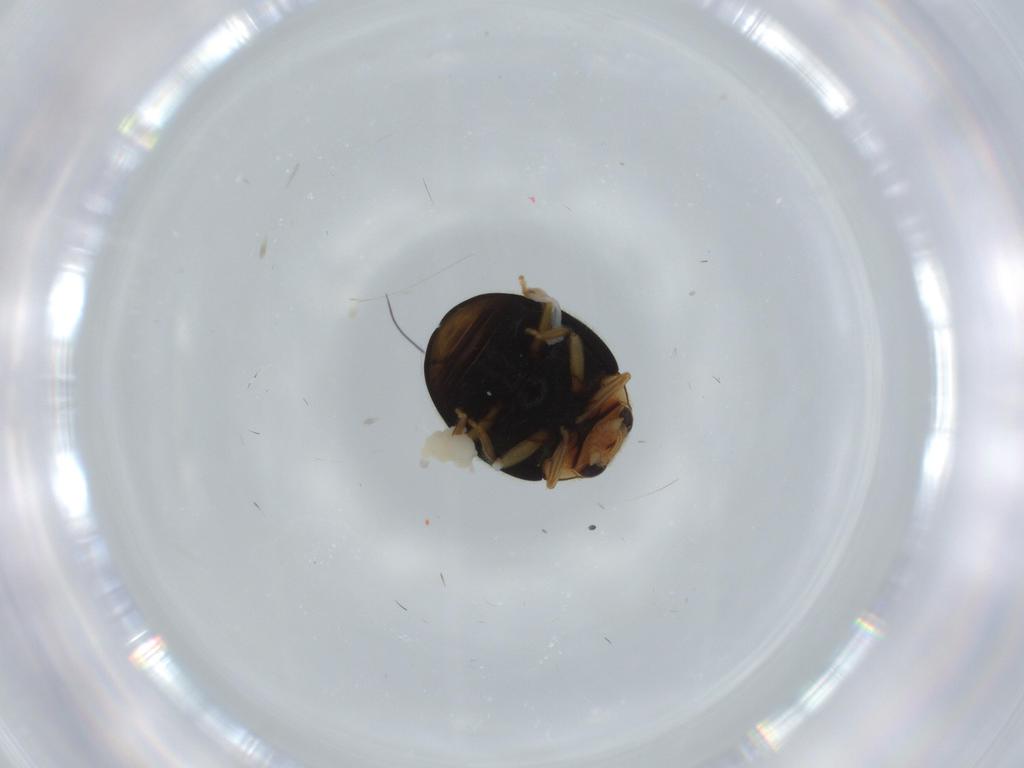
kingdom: Animalia
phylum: Arthropoda
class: Insecta
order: Coleoptera
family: Coccinellidae
